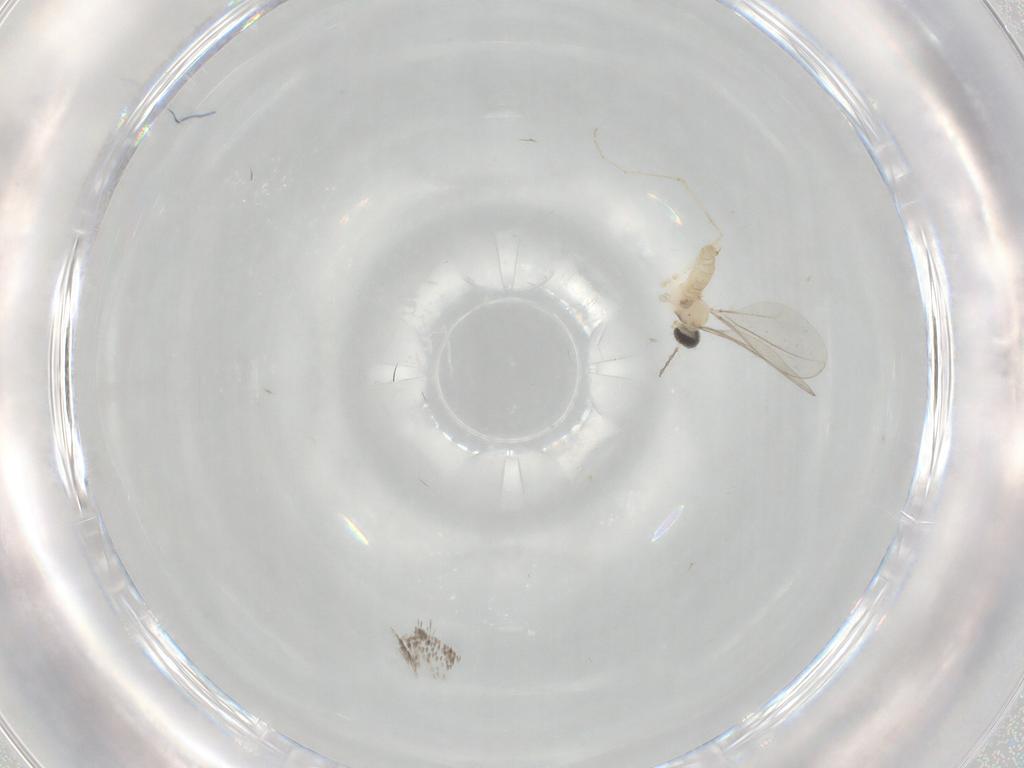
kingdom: Animalia
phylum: Arthropoda
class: Insecta
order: Diptera
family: Cecidomyiidae
